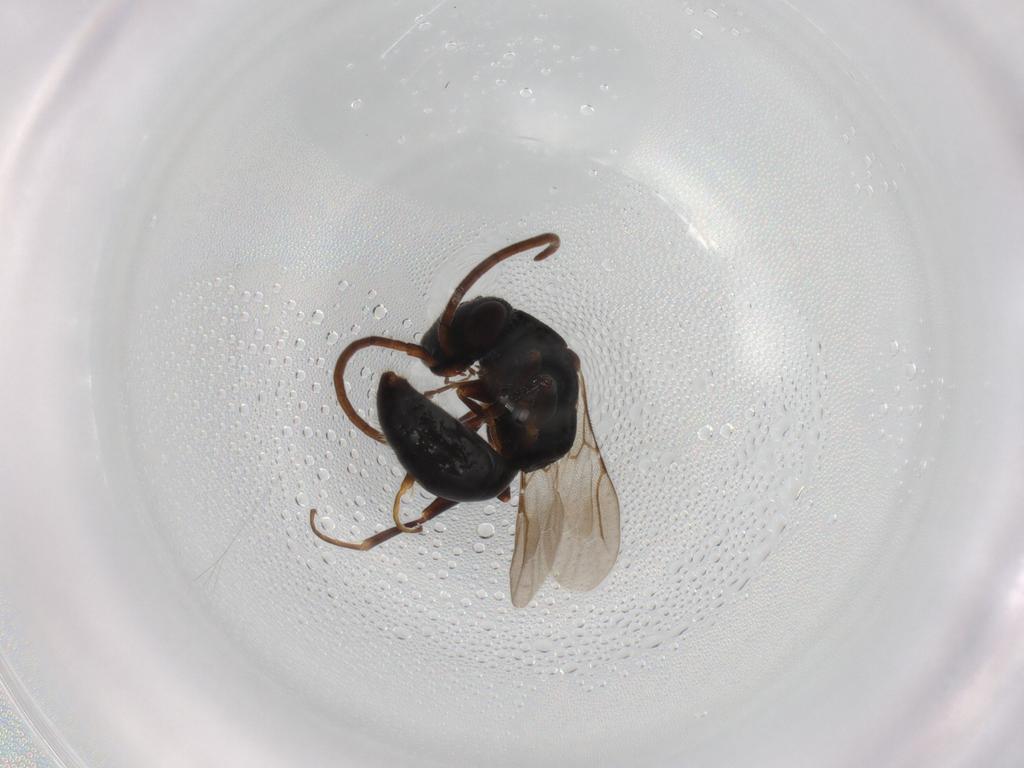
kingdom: Animalia
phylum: Arthropoda
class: Insecta
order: Hymenoptera
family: Bethylidae
